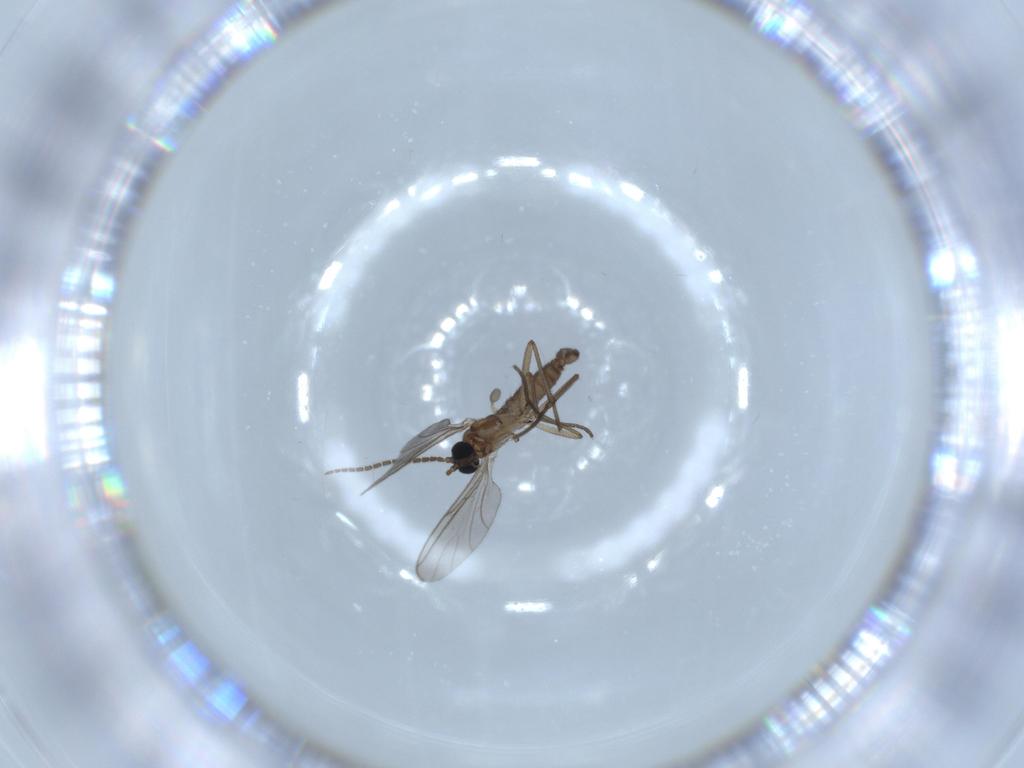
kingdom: Animalia
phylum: Arthropoda
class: Insecta
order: Diptera
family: Sciaridae
